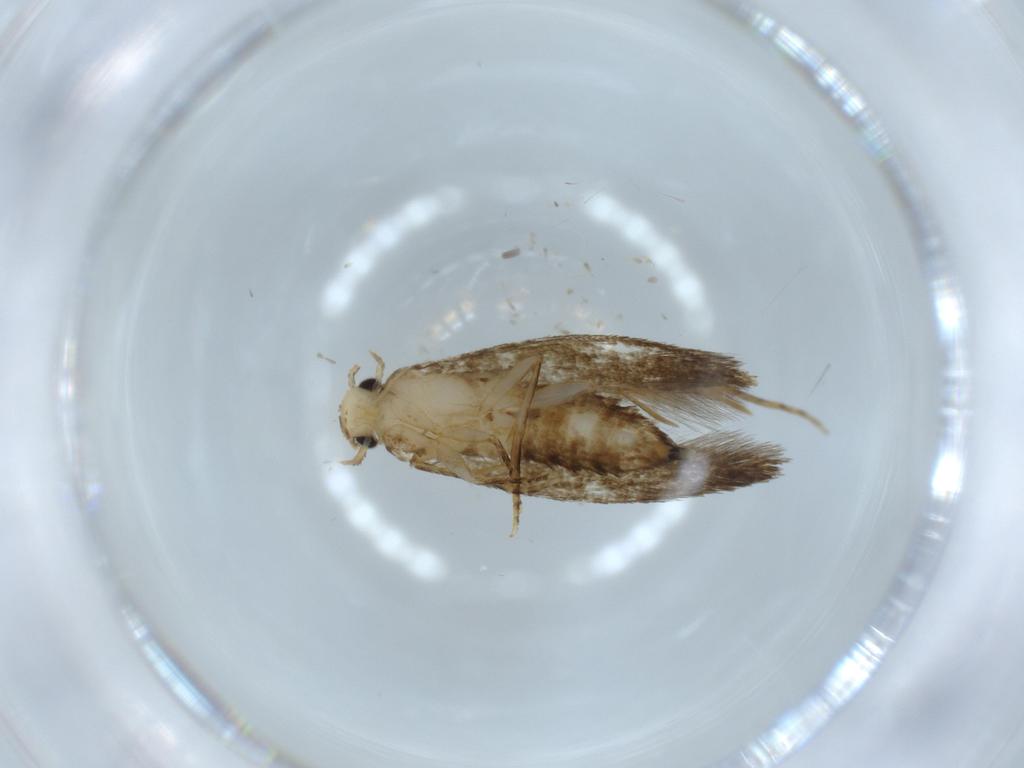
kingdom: Animalia
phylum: Arthropoda
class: Insecta
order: Lepidoptera
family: Tineidae
